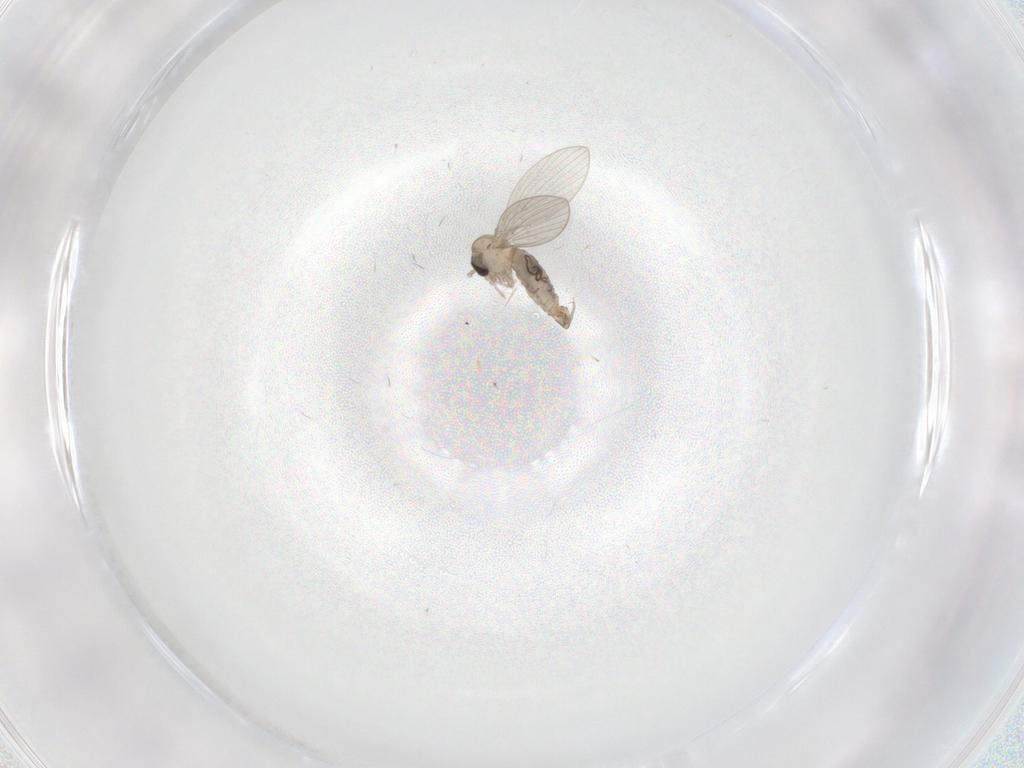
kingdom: Animalia
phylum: Arthropoda
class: Insecta
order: Diptera
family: Psychodidae
